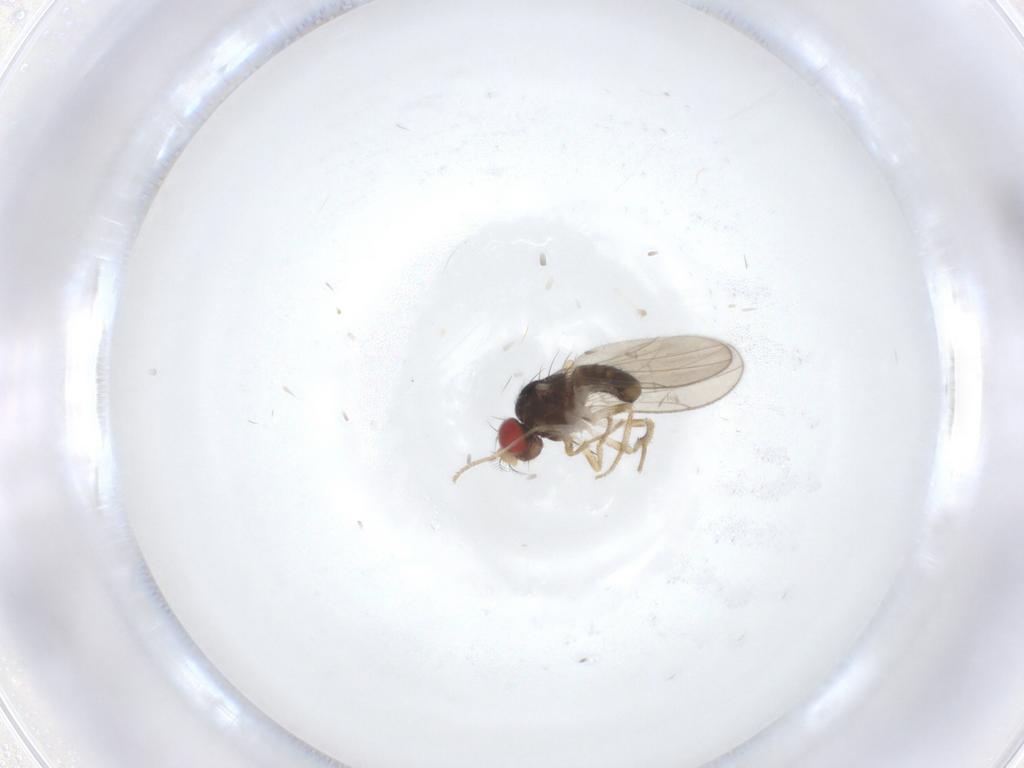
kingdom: Animalia
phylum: Arthropoda
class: Insecta
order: Diptera
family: Drosophilidae
